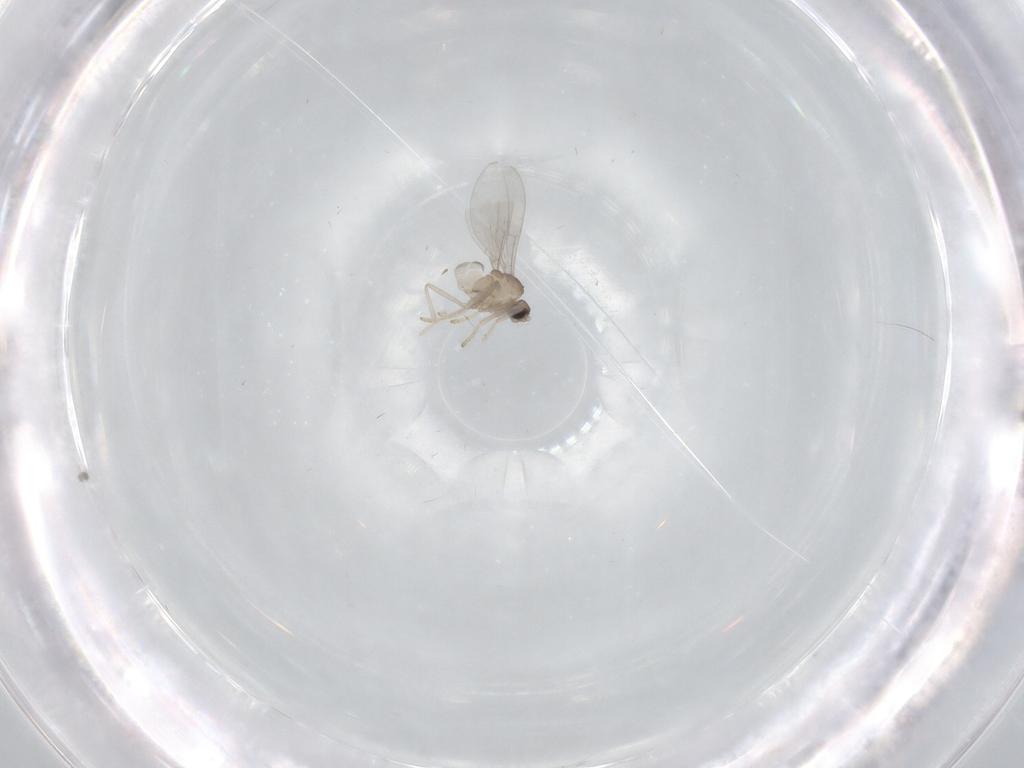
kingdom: Animalia
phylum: Arthropoda
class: Insecta
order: Diptera
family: Cecidomyiidae
